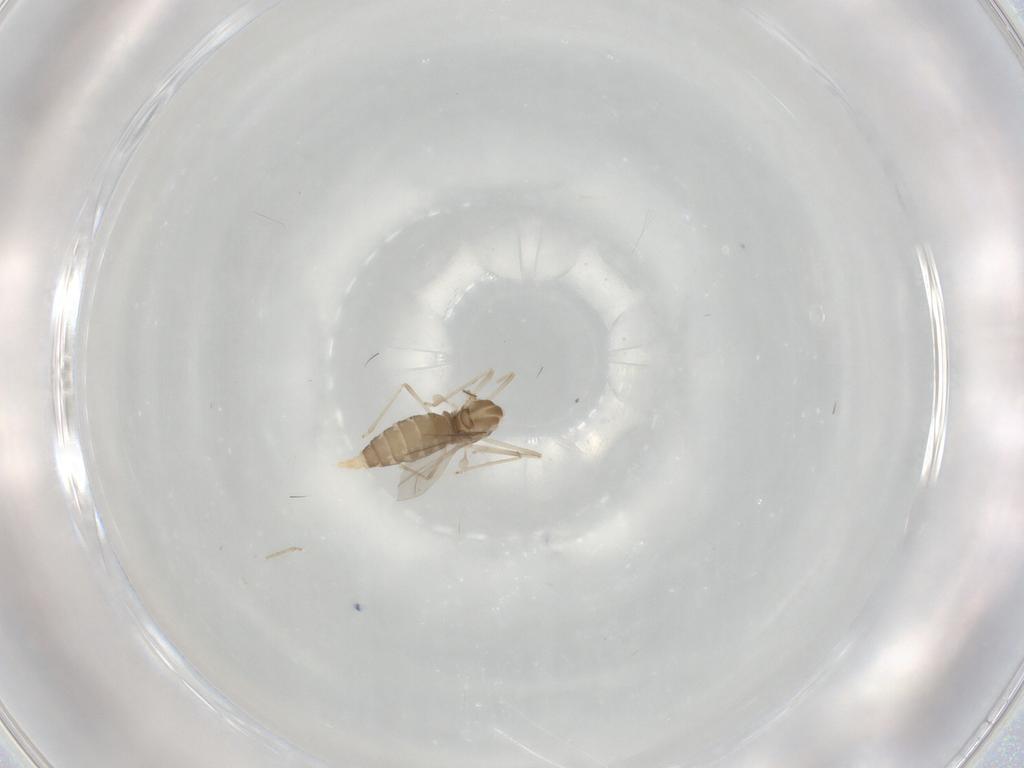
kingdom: Animalia
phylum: Arthropoda
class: Insecta
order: Diptera
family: Cecidomyiidae
